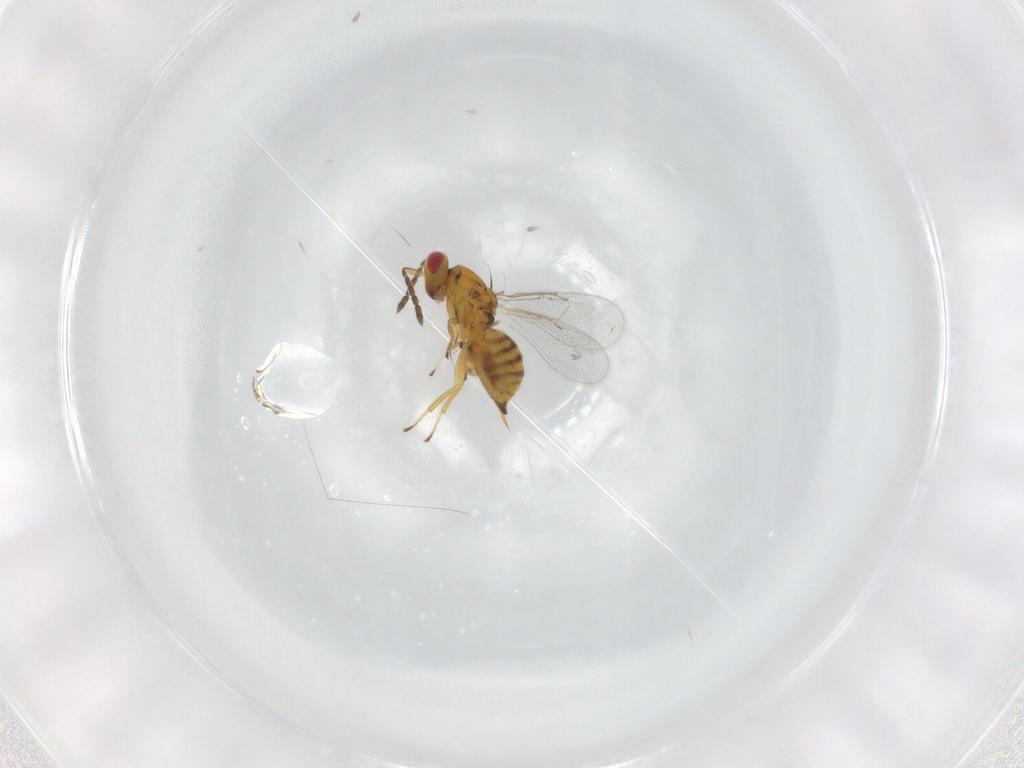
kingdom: Animalia
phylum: Arthropoda
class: Insecta
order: Hymenoptera
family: Eulophidae
